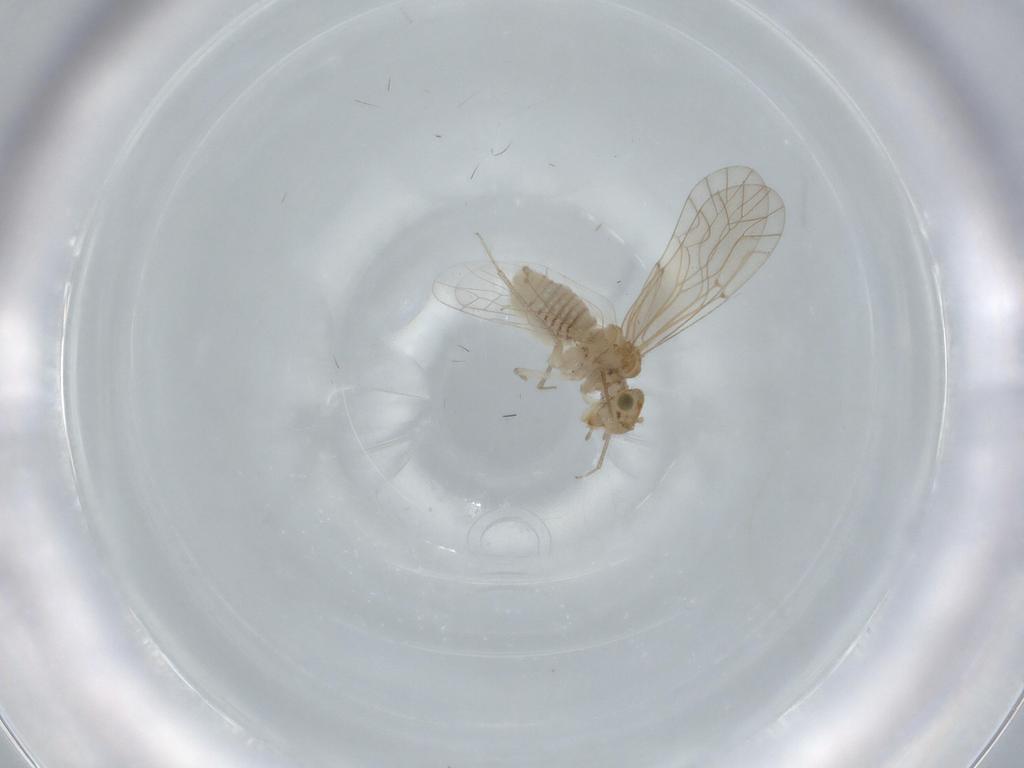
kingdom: Animalia
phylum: Arthropoda
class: Insecta
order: Psocodea
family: Lachesillidae
